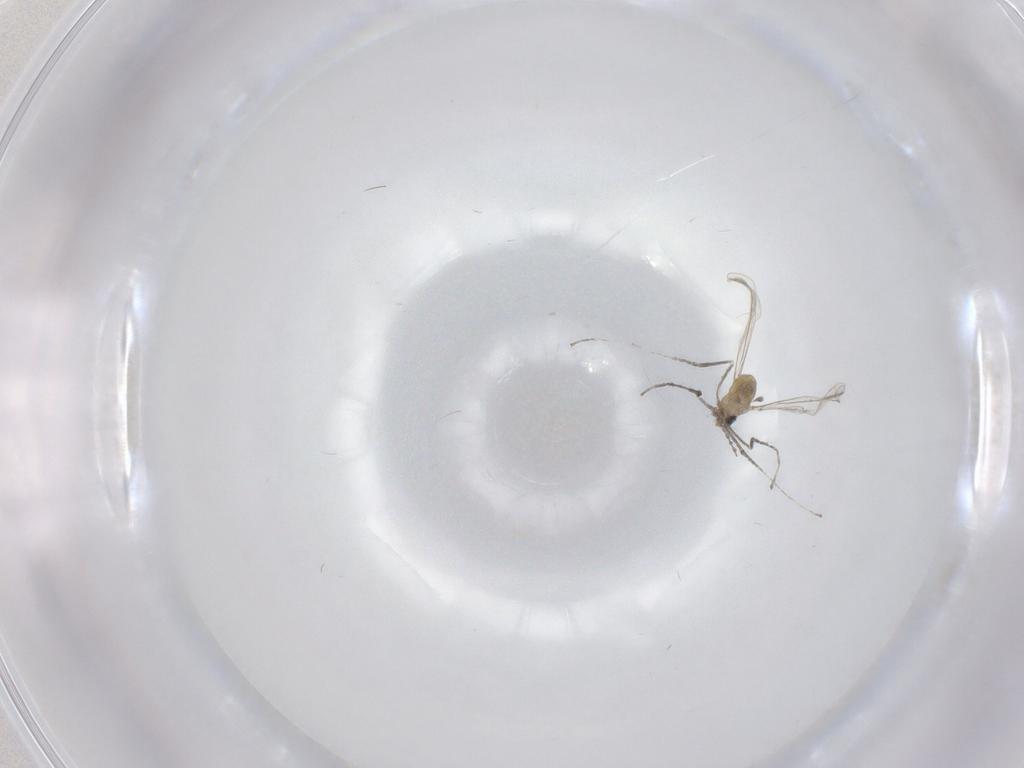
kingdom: Animalia
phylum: Arthropoda
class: Insecta
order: Diptera
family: Cecidomyiidae
